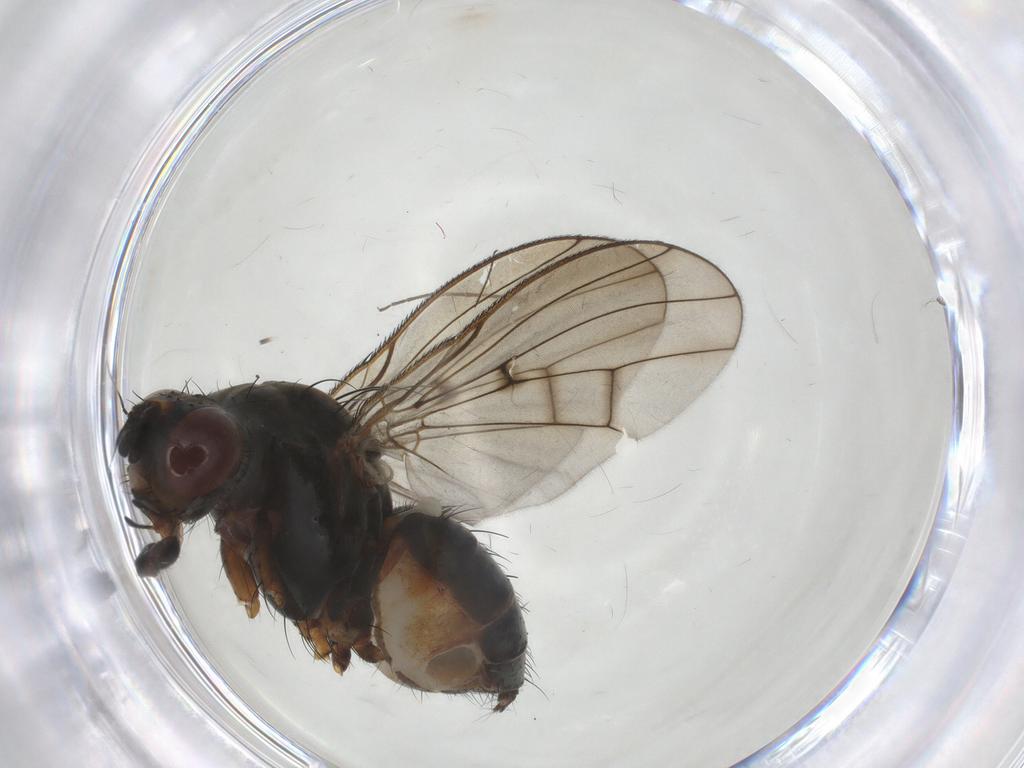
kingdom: Animalia
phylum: Arthropoda
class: Insecta
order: Diptera
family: Anthomyiidae
